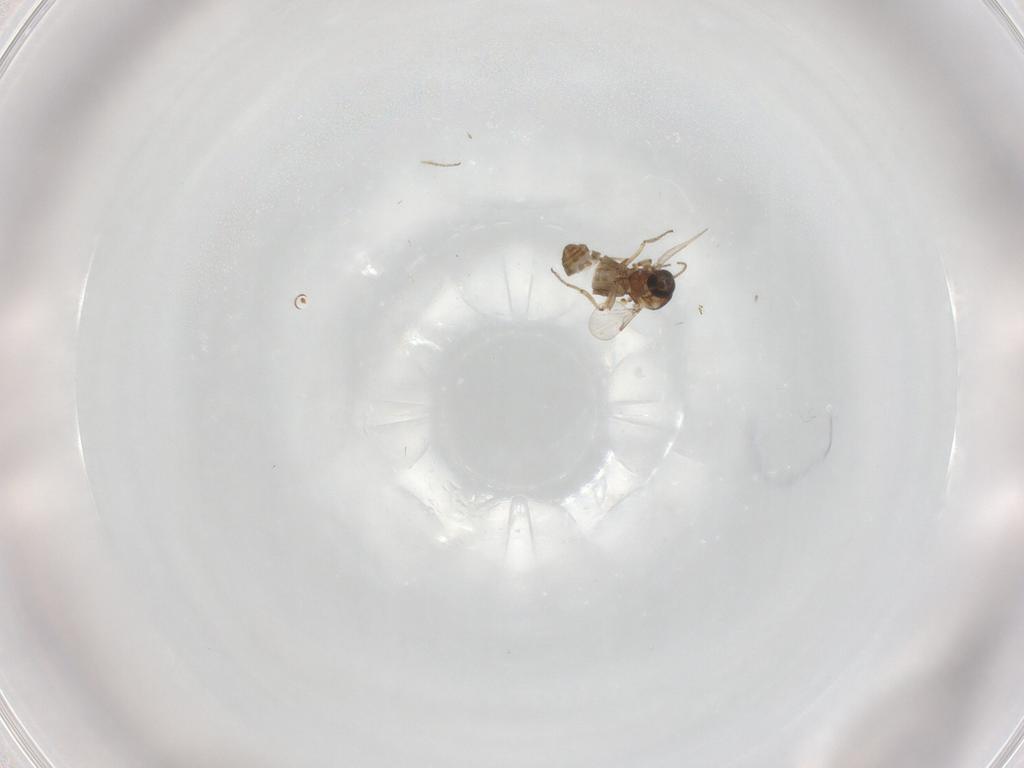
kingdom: Animalia
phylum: Arthropoda
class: Insecta
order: Diptera
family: Ceratopogonidae
